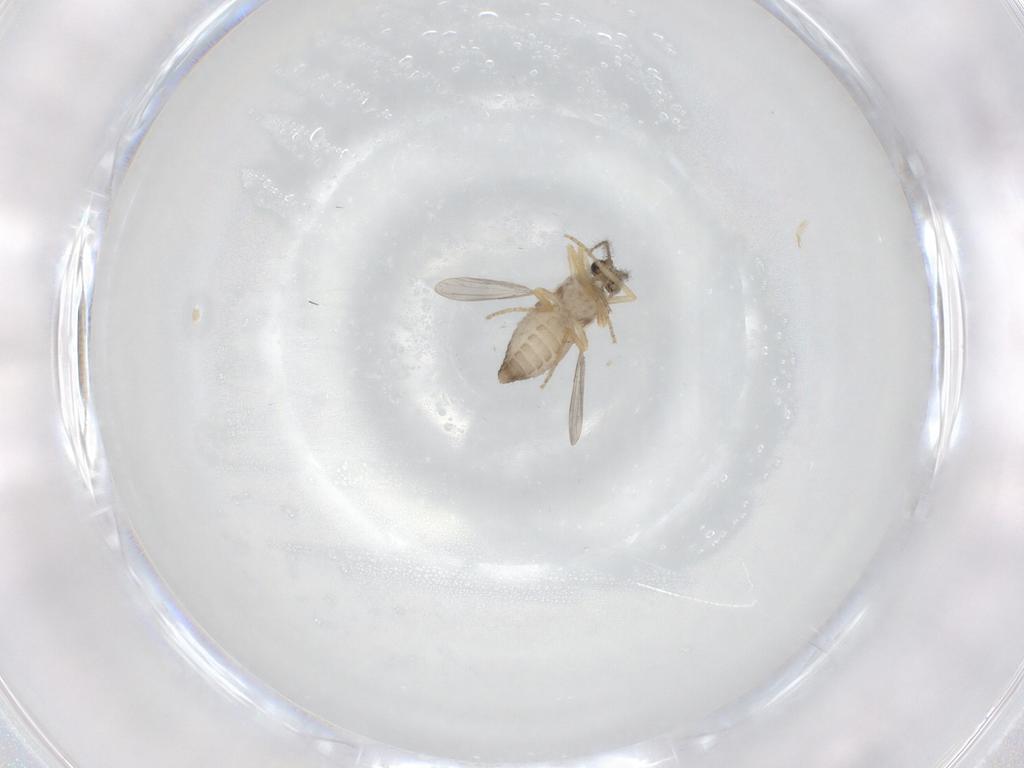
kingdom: Animalia
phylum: Arthropoda
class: Insecta
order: Diptera
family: Ceratopogonidae
